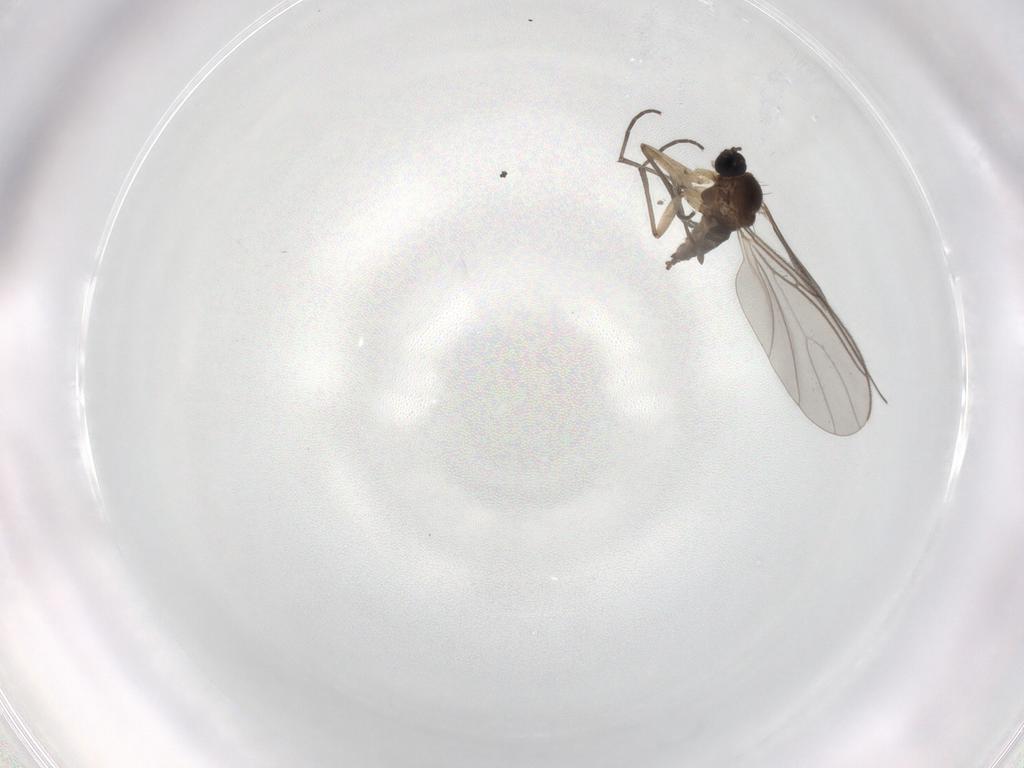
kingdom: Animalia
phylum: Arthropoda
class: Insecta
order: Diptera
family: Sciaridae
